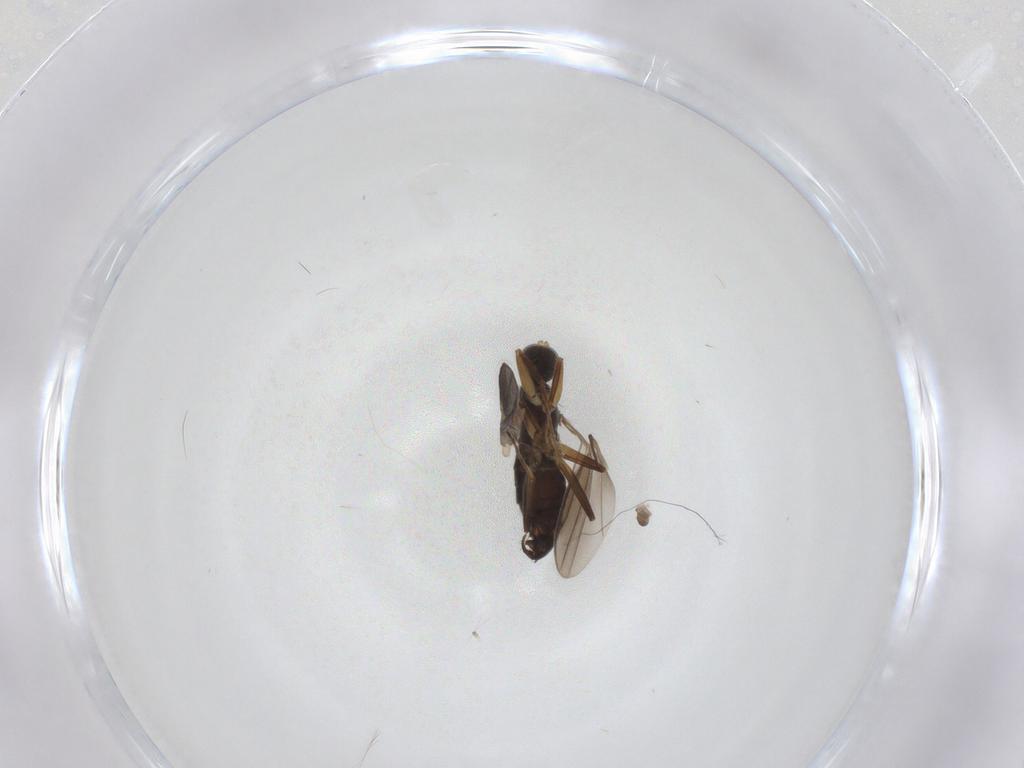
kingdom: Animalia
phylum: Arthropoda
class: Insecta
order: Diptera
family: Hybotidae
